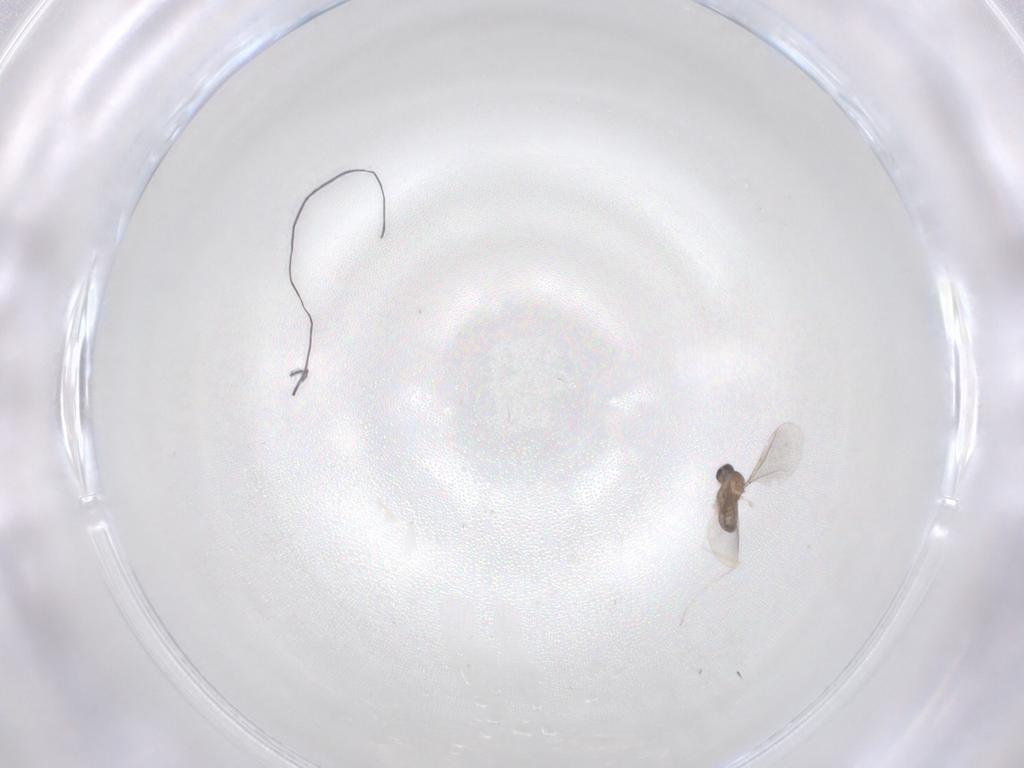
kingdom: Animalia
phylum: Arthropoda
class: Insecta
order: Diptera
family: Cecidomyiidae
